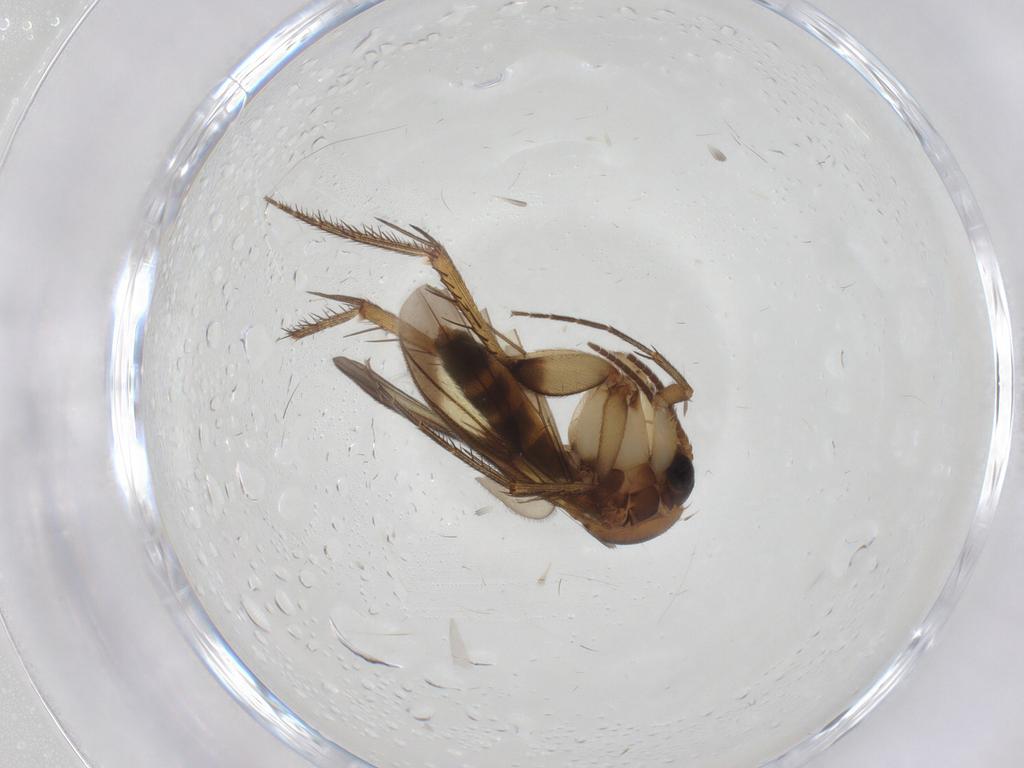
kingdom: Animalia
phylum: Arthropoda
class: Insecta
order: Diptera
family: Mycetophilidae
